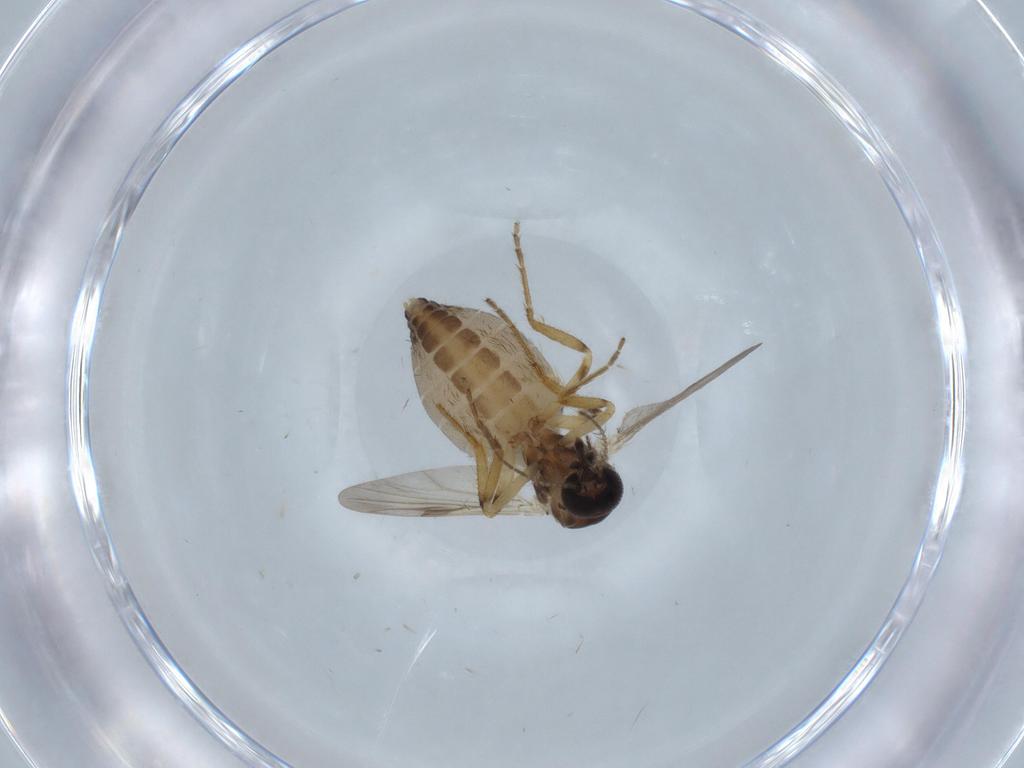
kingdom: Animalia
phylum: Arthropoda
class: Insecta
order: Diptera
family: Ceratopogonidae
